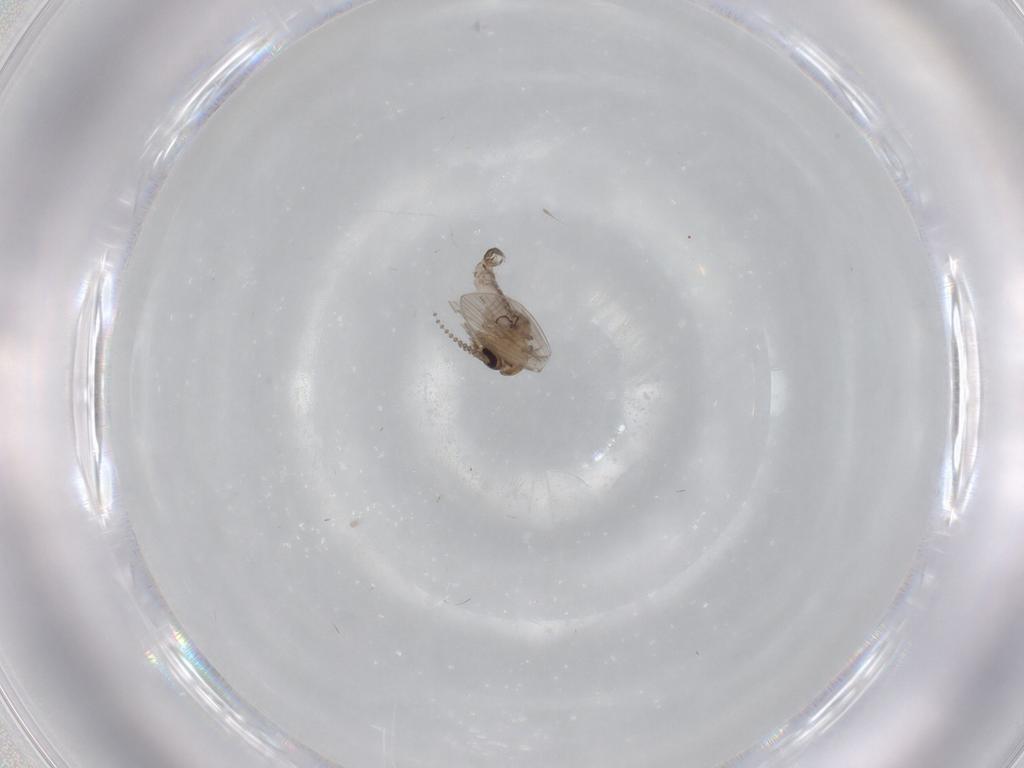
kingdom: Animalia
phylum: Arthropoda
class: Insecta
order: Diptera
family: Psychodidae
